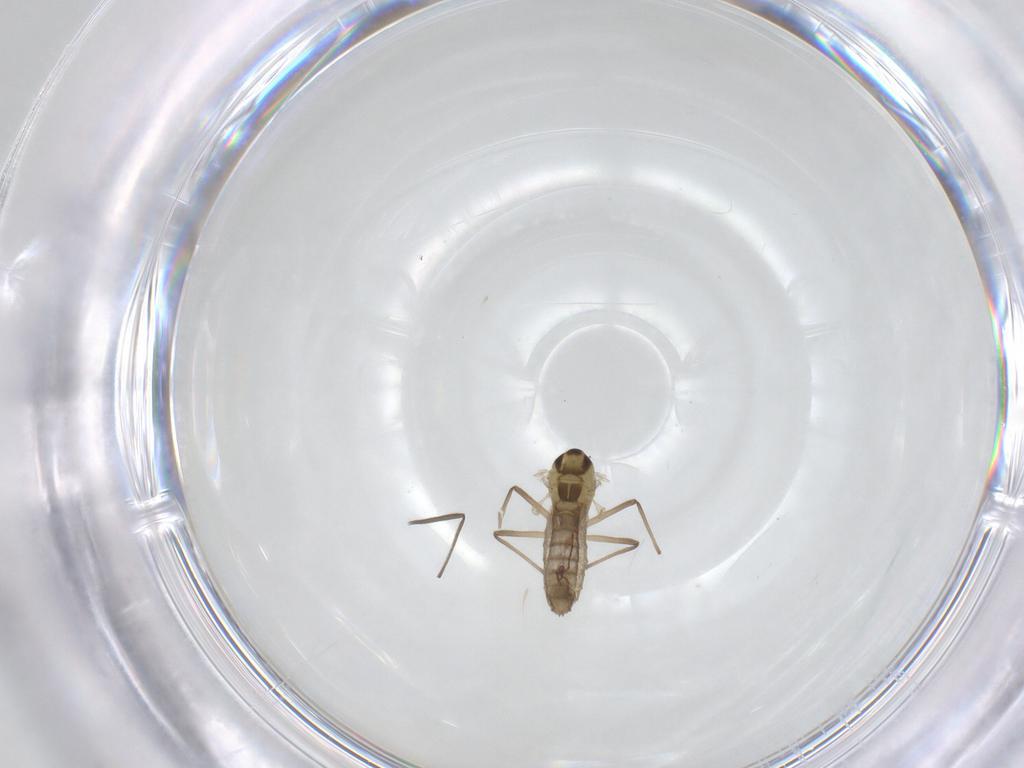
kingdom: Animalia
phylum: Arthropoda
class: Insecta
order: Diptera
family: Chironomidae
